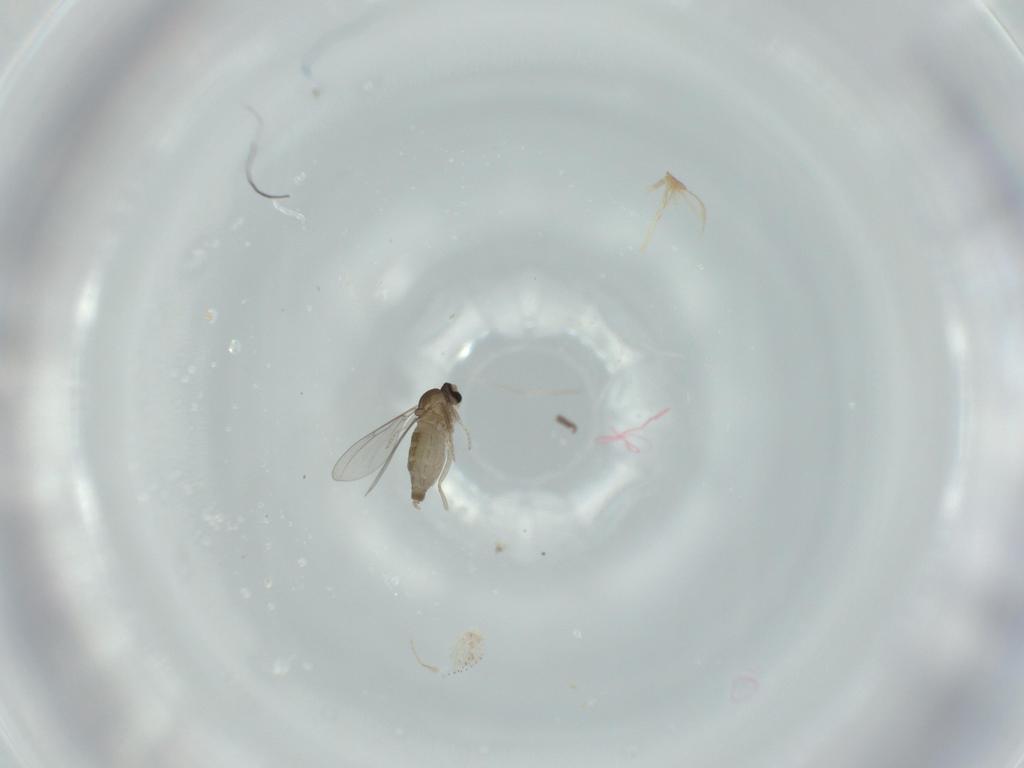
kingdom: Animalia
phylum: Arthropoda
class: Insecta
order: Diptera
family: Cecidomyiidae
